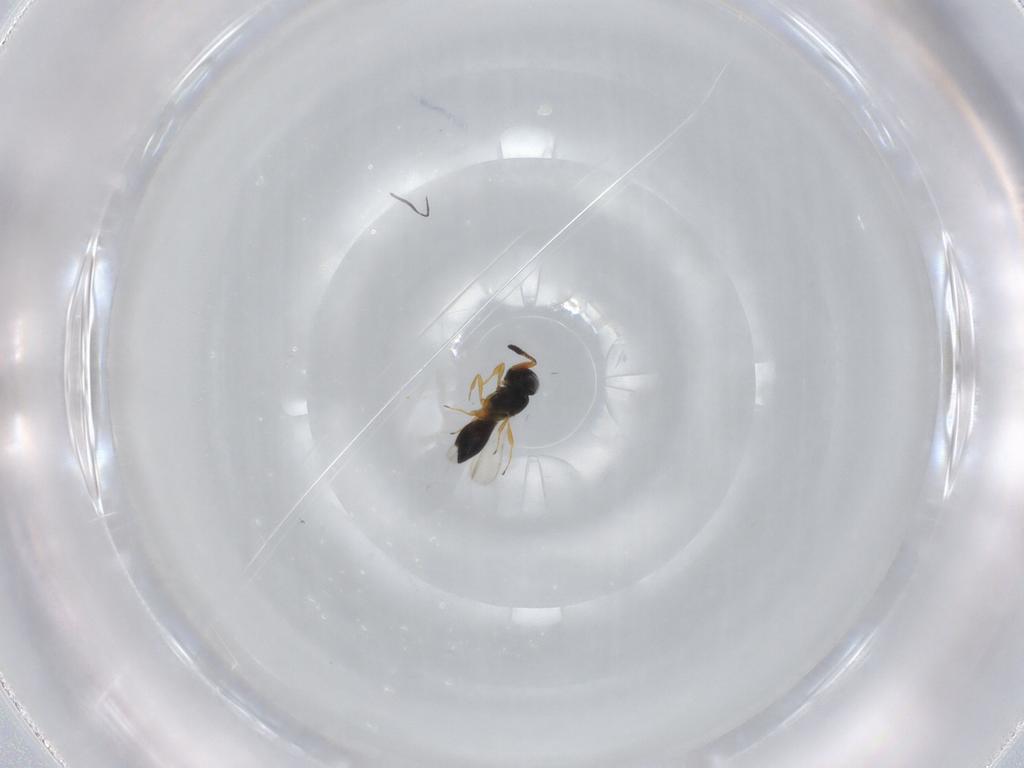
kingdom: Animalia
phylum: Arthropoda
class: Insecta
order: Hymenoptera
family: Scelionidae
